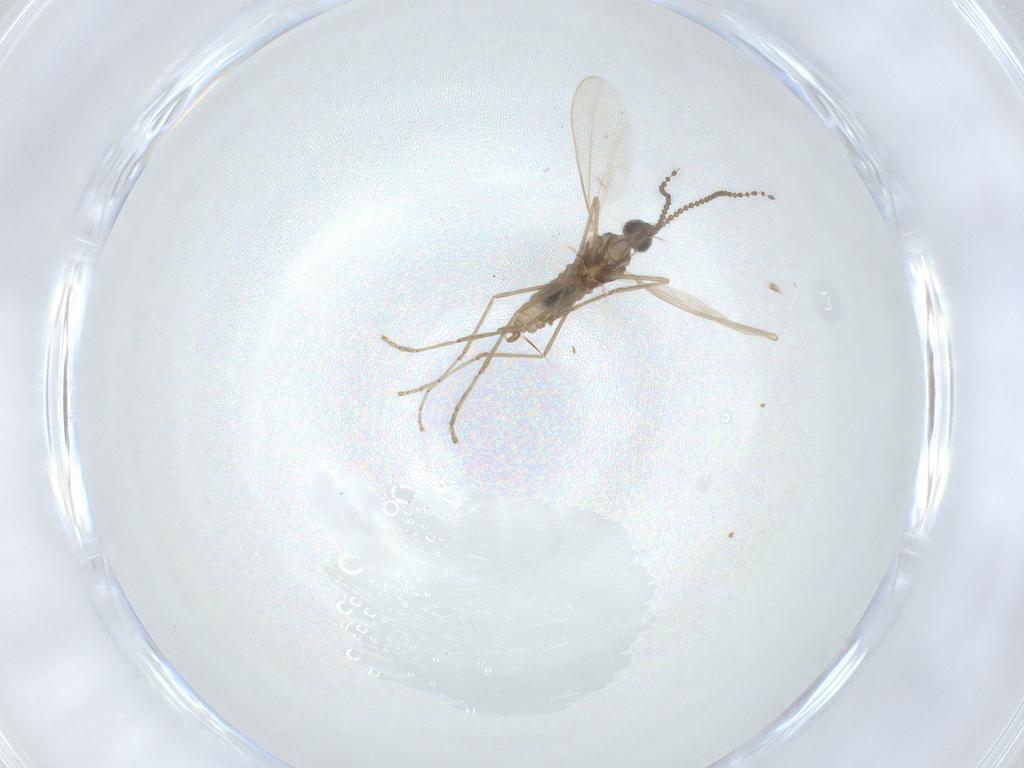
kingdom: Animalia
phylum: Arthropoda
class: Insecta
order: Diptera
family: Cecidomyiidae
